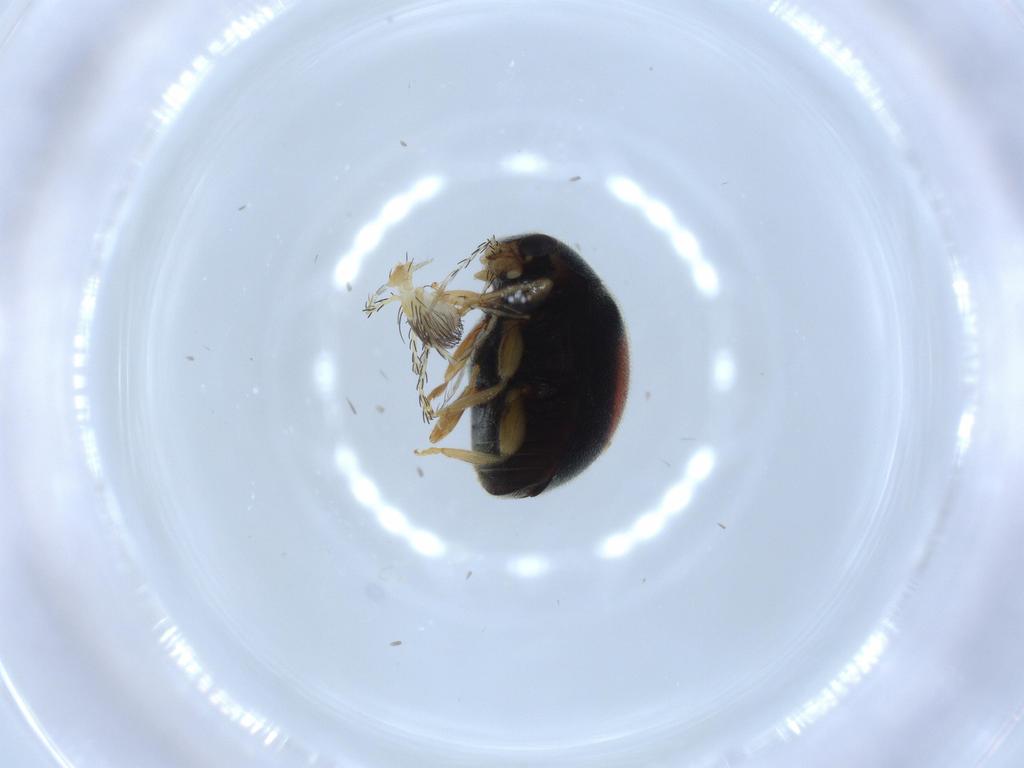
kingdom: Animalia
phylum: Arthropoda
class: Insecta
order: Coleoptera
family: Coccinellidae
